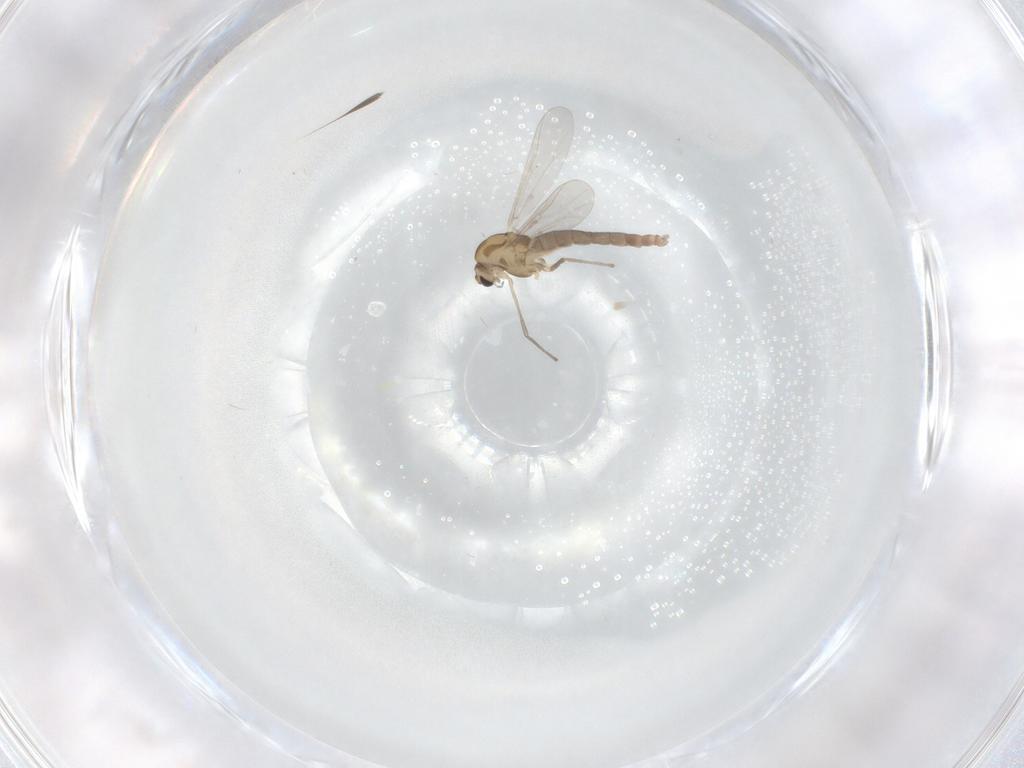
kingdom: Animalia
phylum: Arthropoda
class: Insecta
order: Diptera
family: Chironomidae
